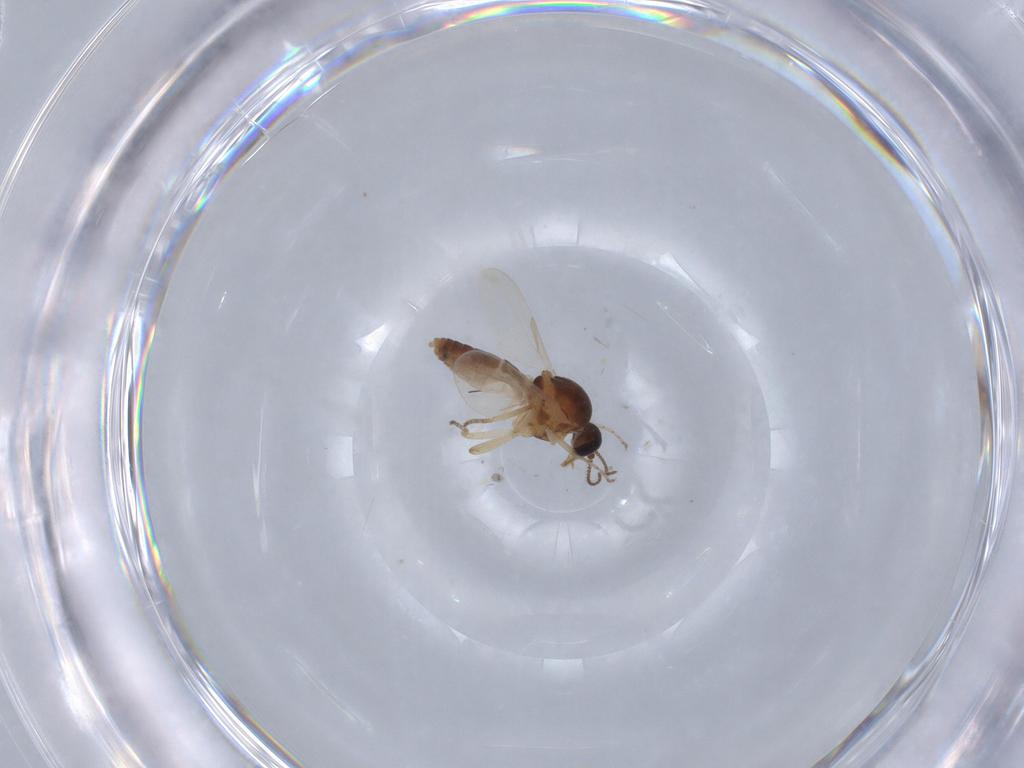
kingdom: Animalia
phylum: Arthropoda
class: Insecta
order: Diptera
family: Ceratopogonidae
